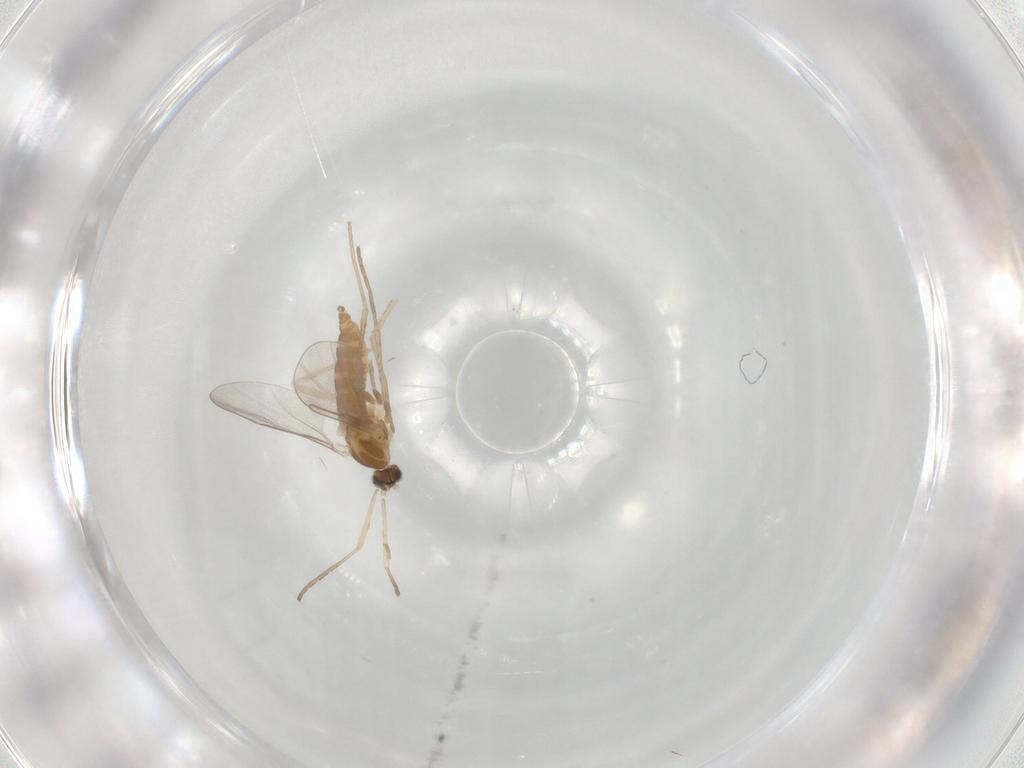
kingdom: Animalia
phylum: Arthropoda
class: Insecta
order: Diptera
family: Cecidomyiidae
